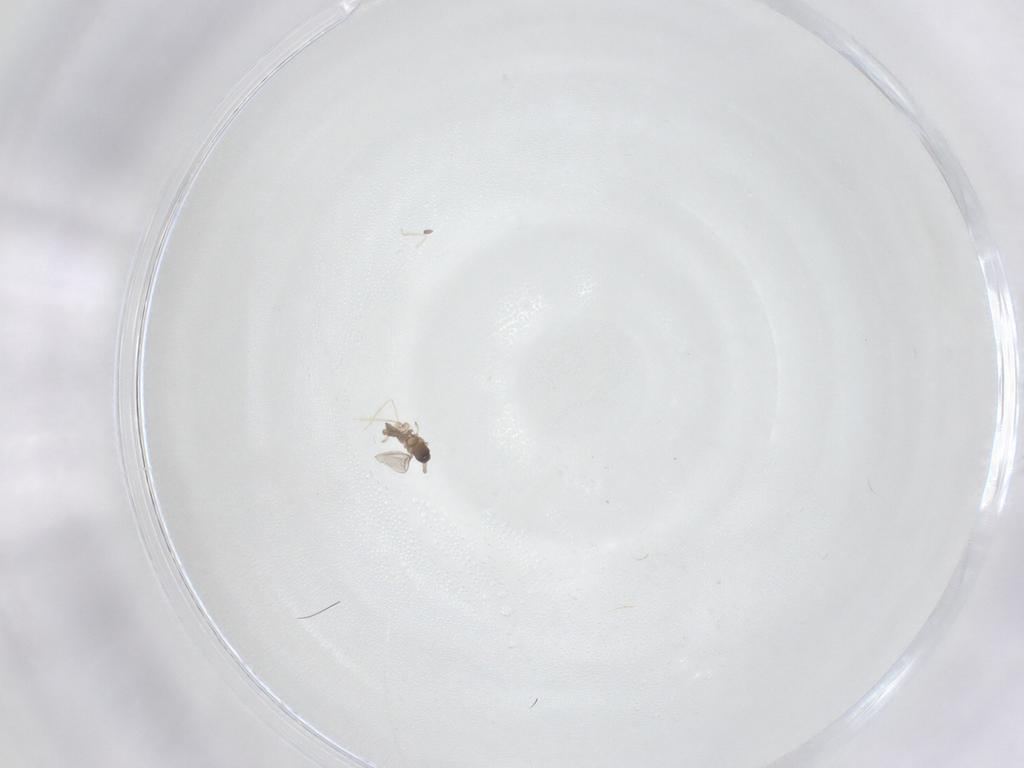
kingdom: Animalia
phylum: Arthropoda
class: Insecta
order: Diptera
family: Cecidomyiidae
